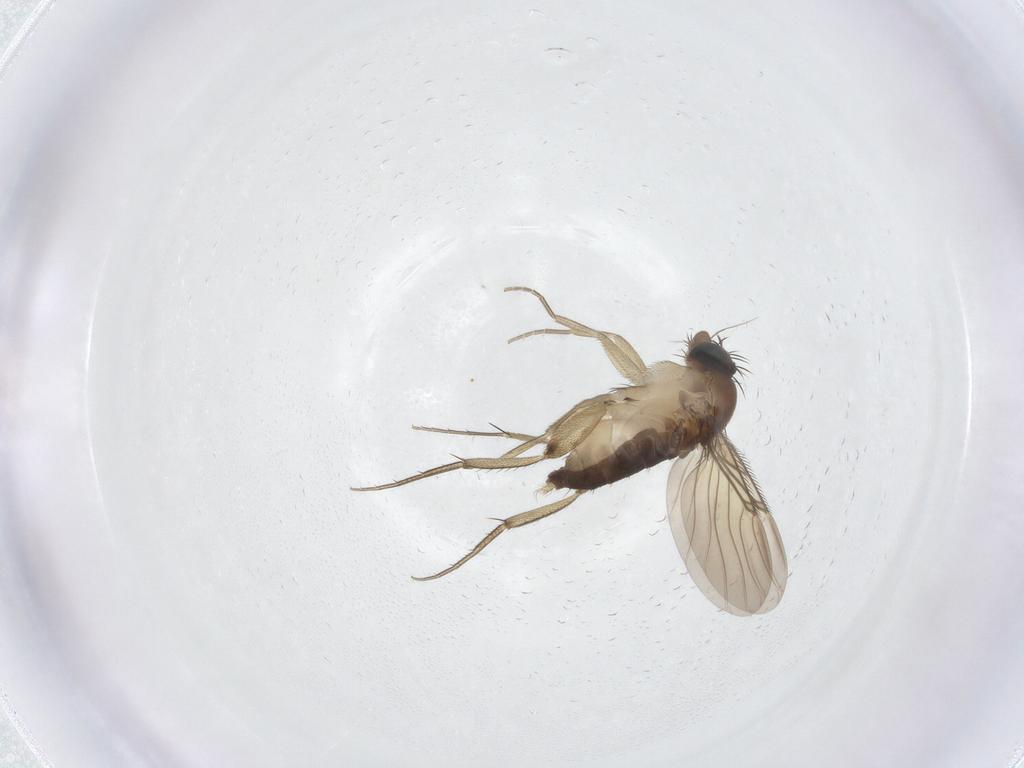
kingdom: Animalia
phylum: Arthropoda
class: Insecta
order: Diptera
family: Phoridae
